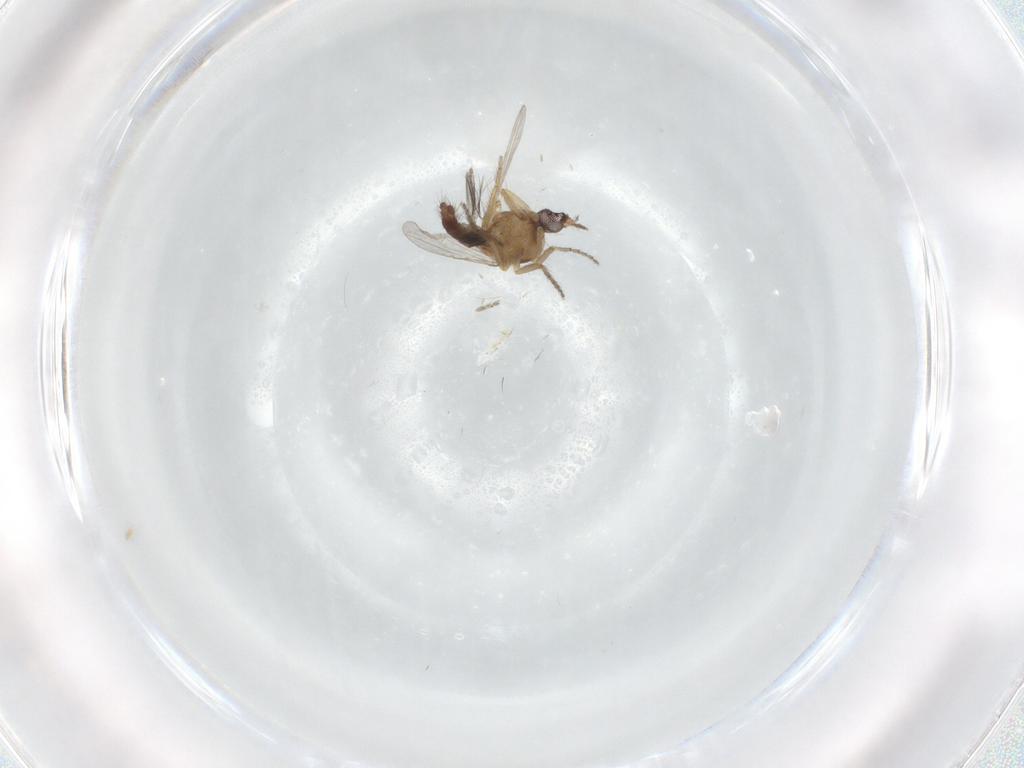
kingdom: Animalia
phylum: Arthropoda
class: Insecta
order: Diptera
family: Ceratopogonidae
